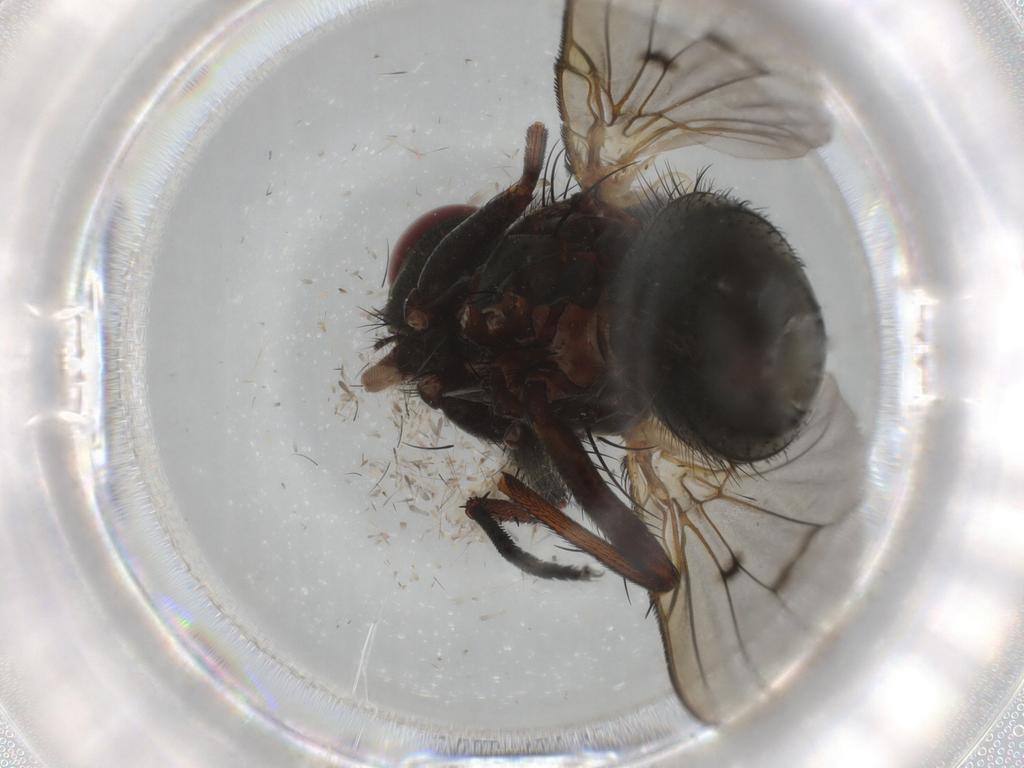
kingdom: Animalia
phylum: Arthropoda
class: Insecta
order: Diptera
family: Muscidae
